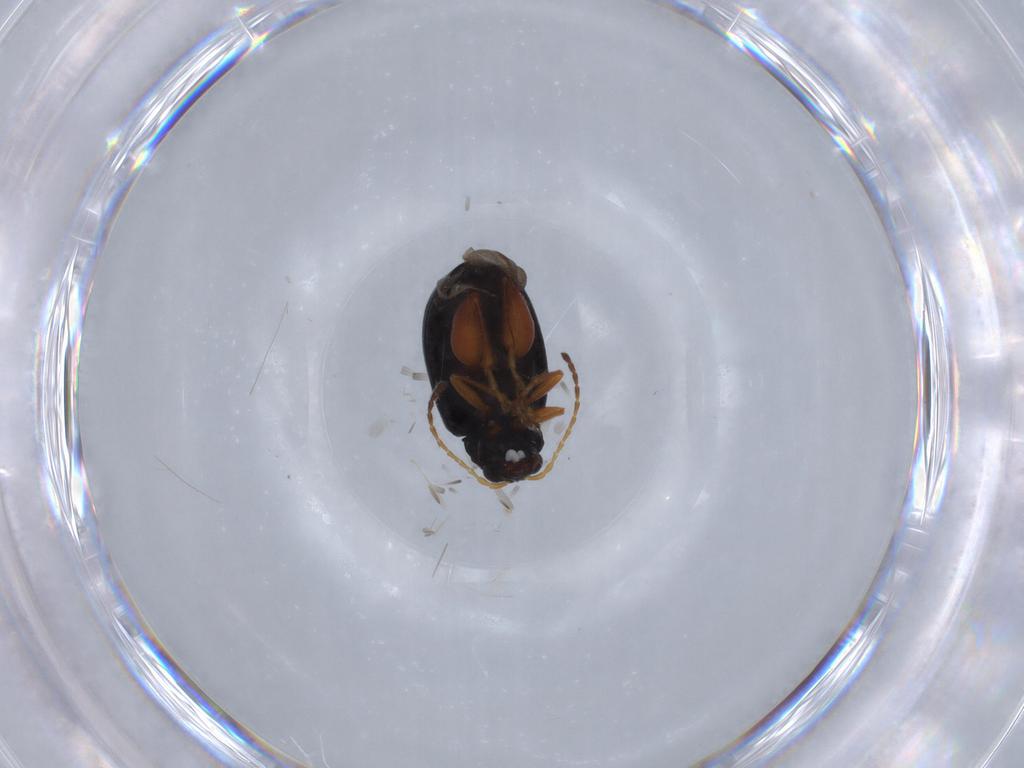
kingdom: Animalia
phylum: Arthropoda
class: Insecta
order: Coleoptera
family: Chrysomelidae
